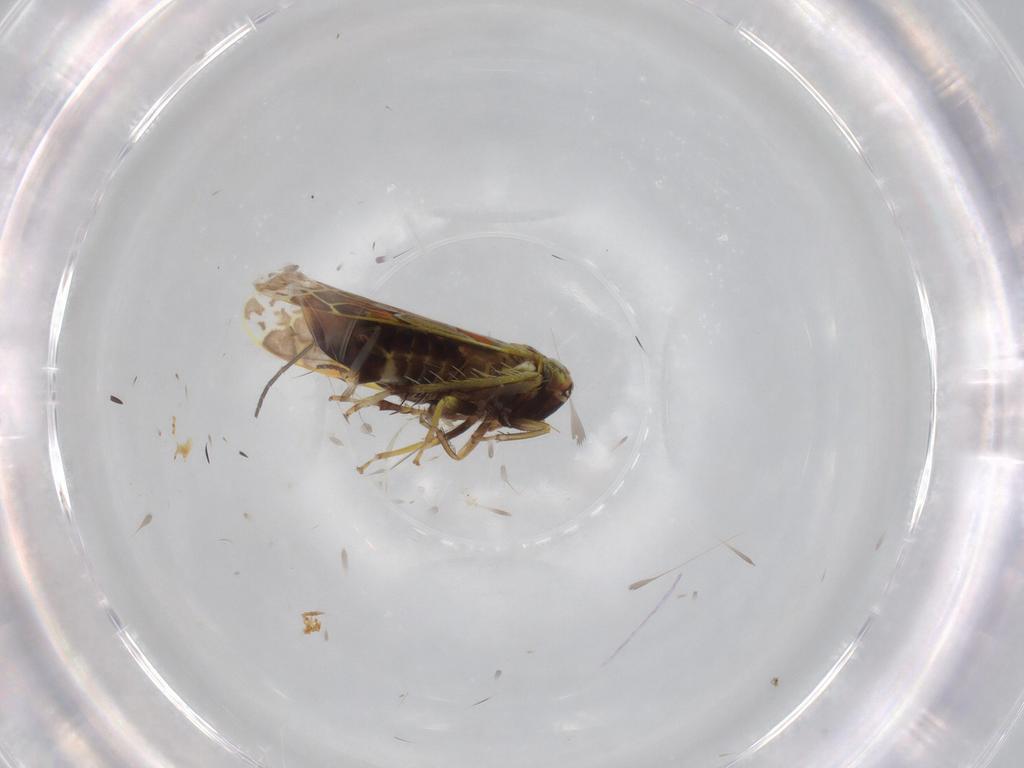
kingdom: Animalia
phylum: Arthropoda
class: Insecta
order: Hemiptera
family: Cicadellidae
